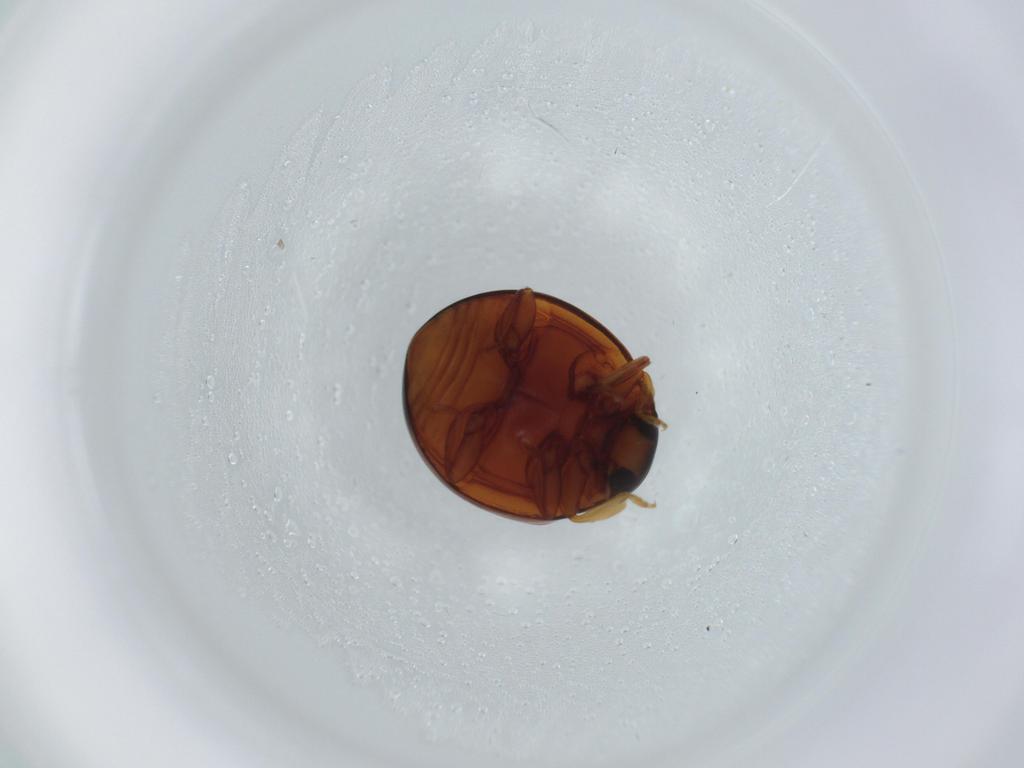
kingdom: Animalia
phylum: Arthropoda
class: Insecta
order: Coleoptera
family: Coccinellidae
